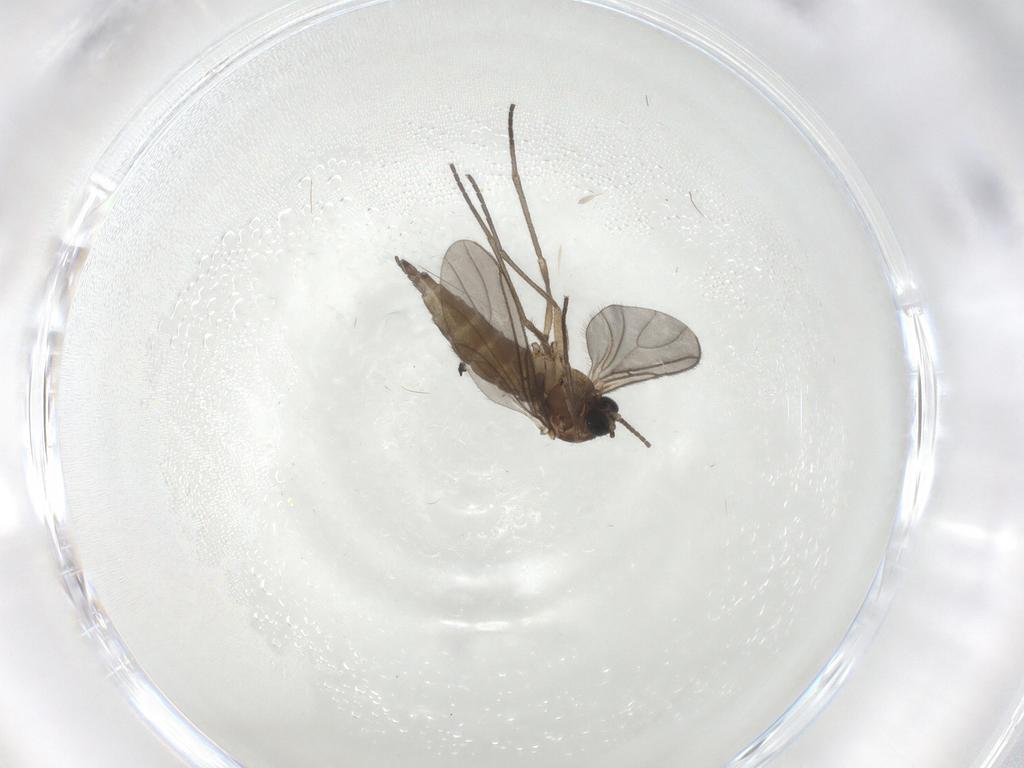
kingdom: Animalia
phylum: Arthropoda
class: Insecta
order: Diptera
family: Sciaridae
